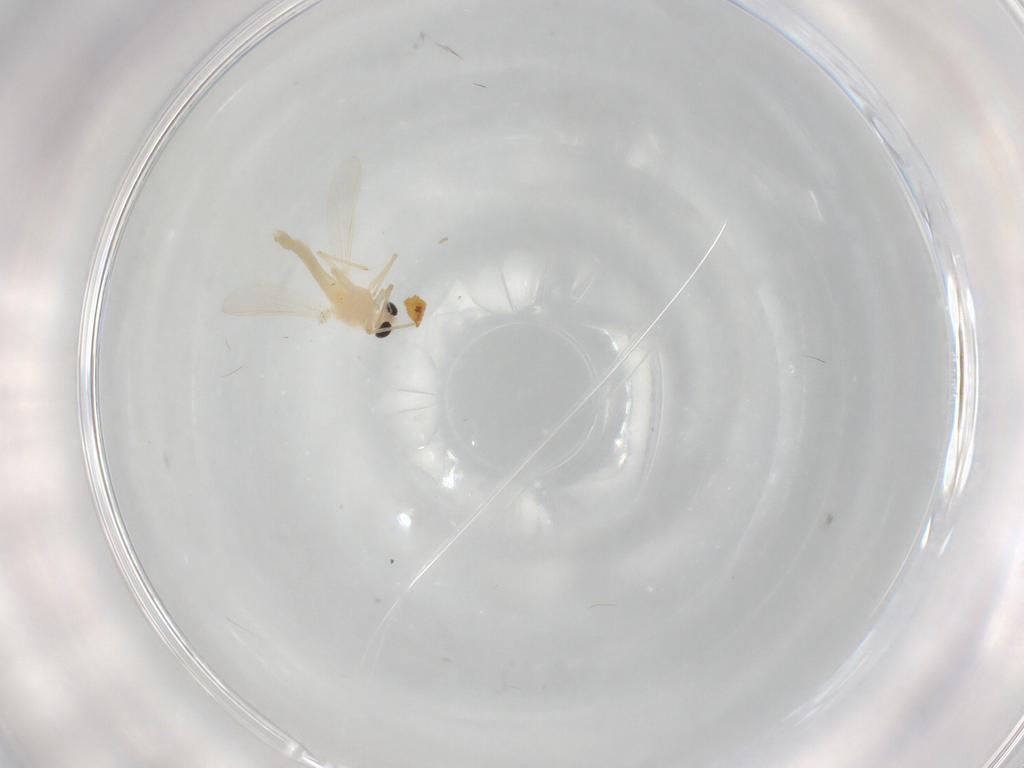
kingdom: Animalia
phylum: Arthropoda
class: Insecta
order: Diptera
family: Chironomidae
